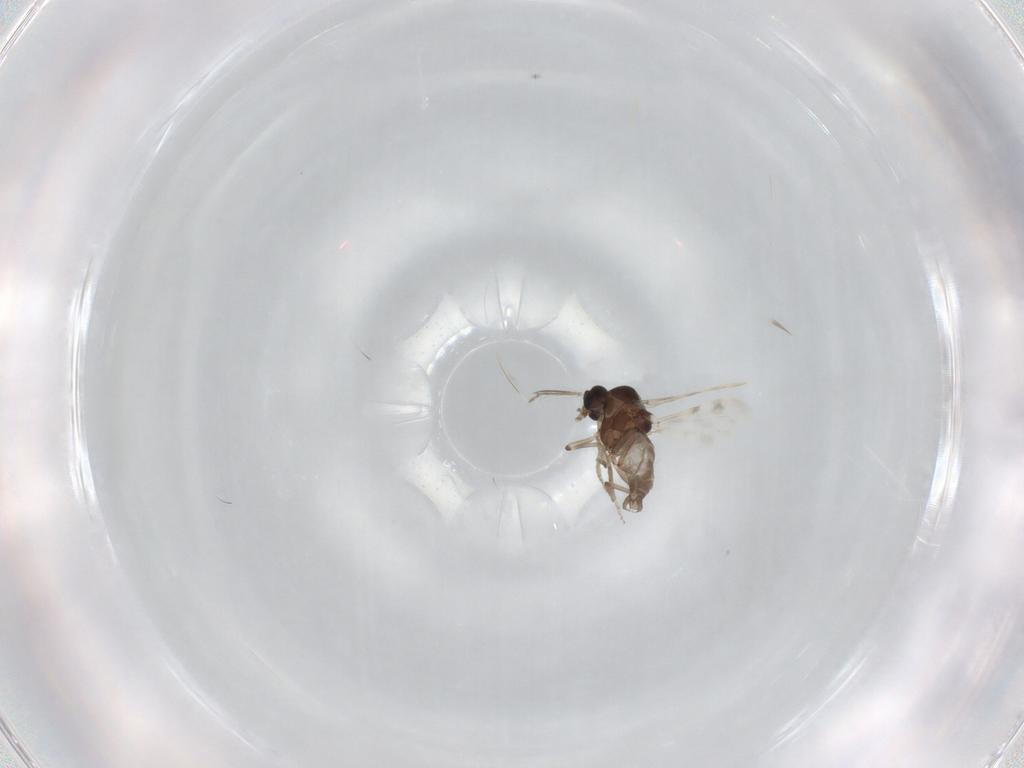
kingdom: Animalia
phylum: Arthropoda
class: Insecta
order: Diptera
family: Ceratopogonidae
